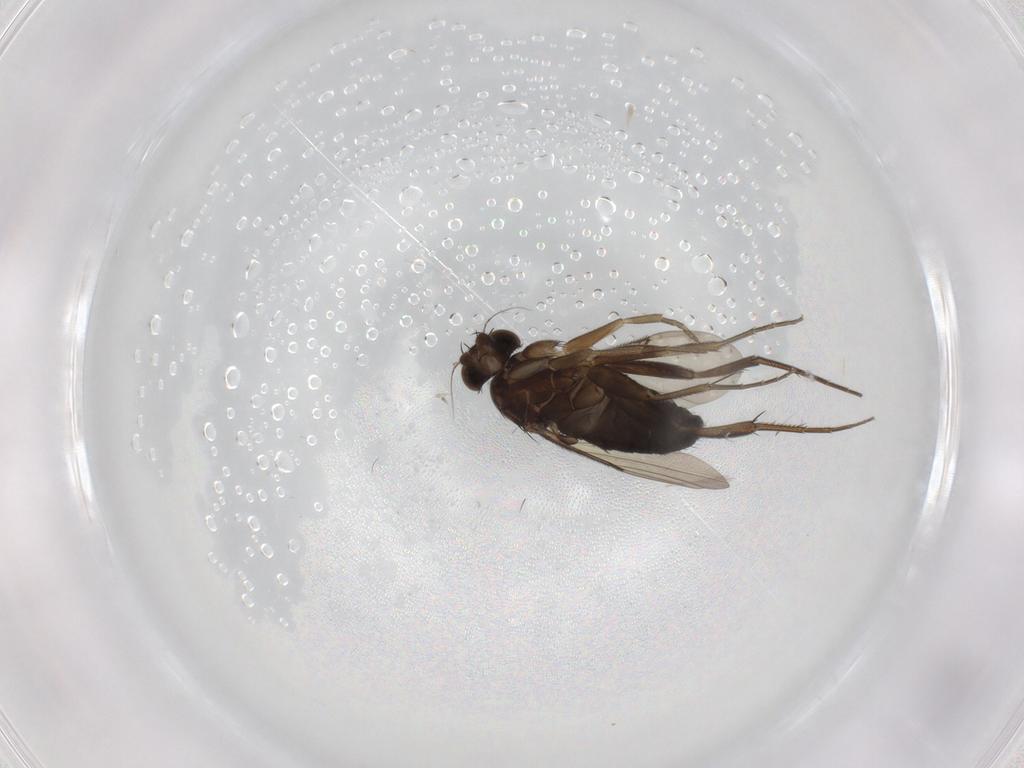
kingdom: Animalia
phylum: Arthropoda
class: Insecta
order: Diptera
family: Phoridae
